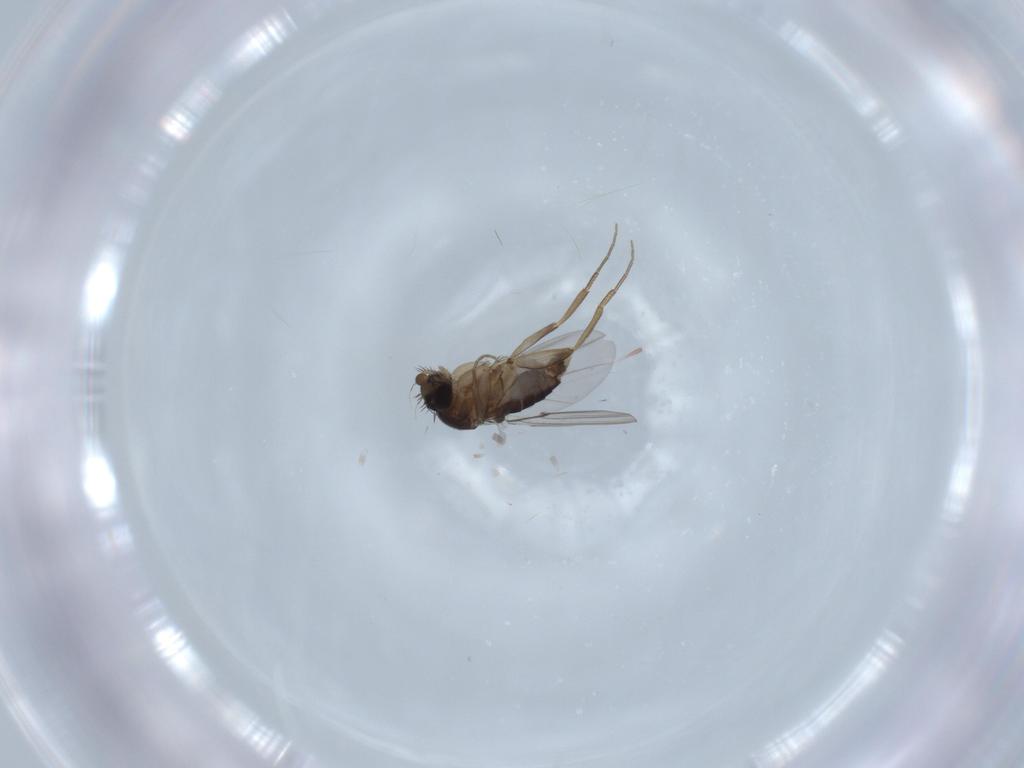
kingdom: Animalia
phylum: Arthropoda
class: Insecta
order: Diptera
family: Phoridae
